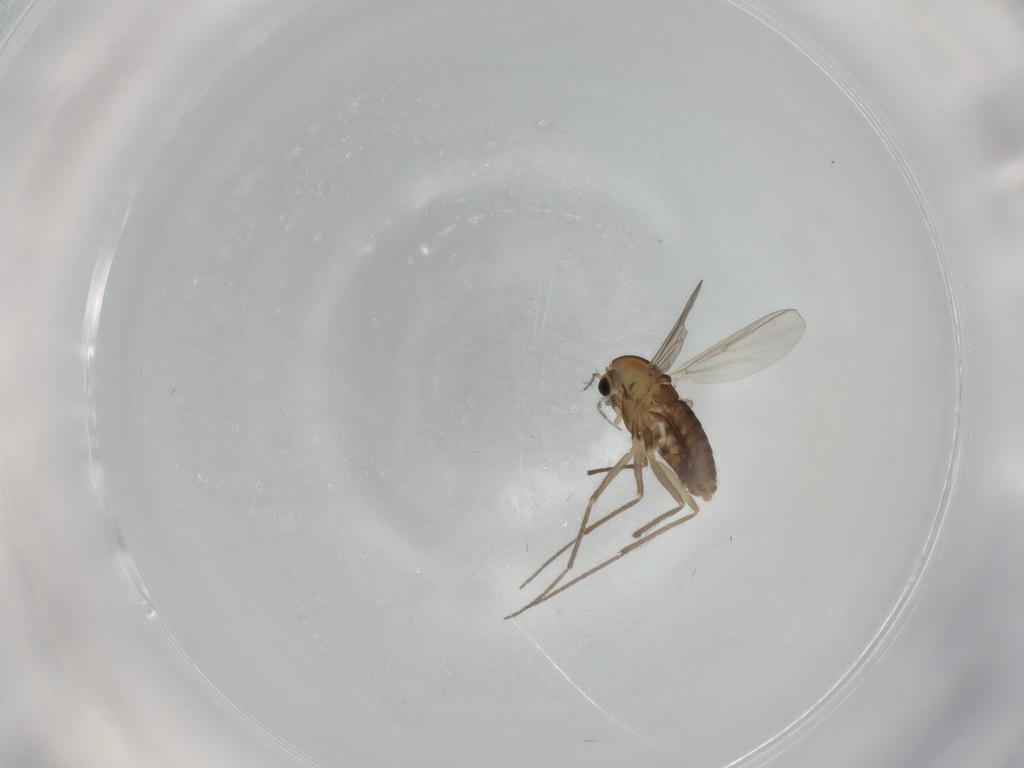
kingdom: Animalia
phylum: Arthropoda
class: Insecta
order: Diptera
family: Chironomidae
